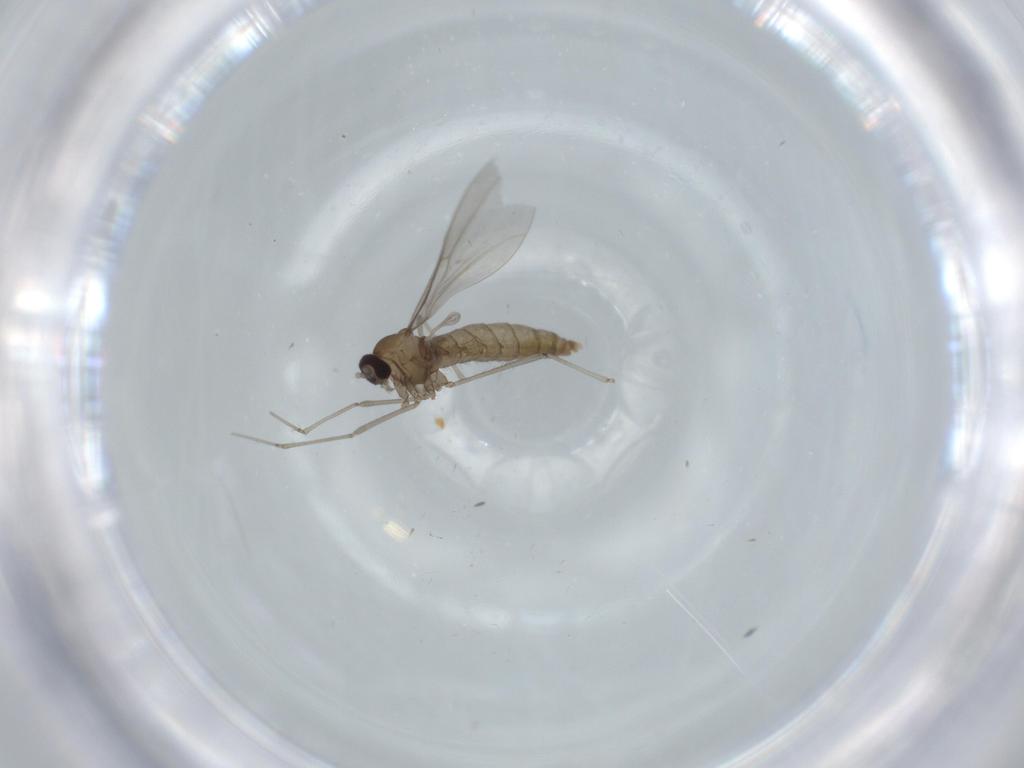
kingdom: Animalia
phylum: Arthropoda
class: Insecta
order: Diptera
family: Cecidomyiidae
